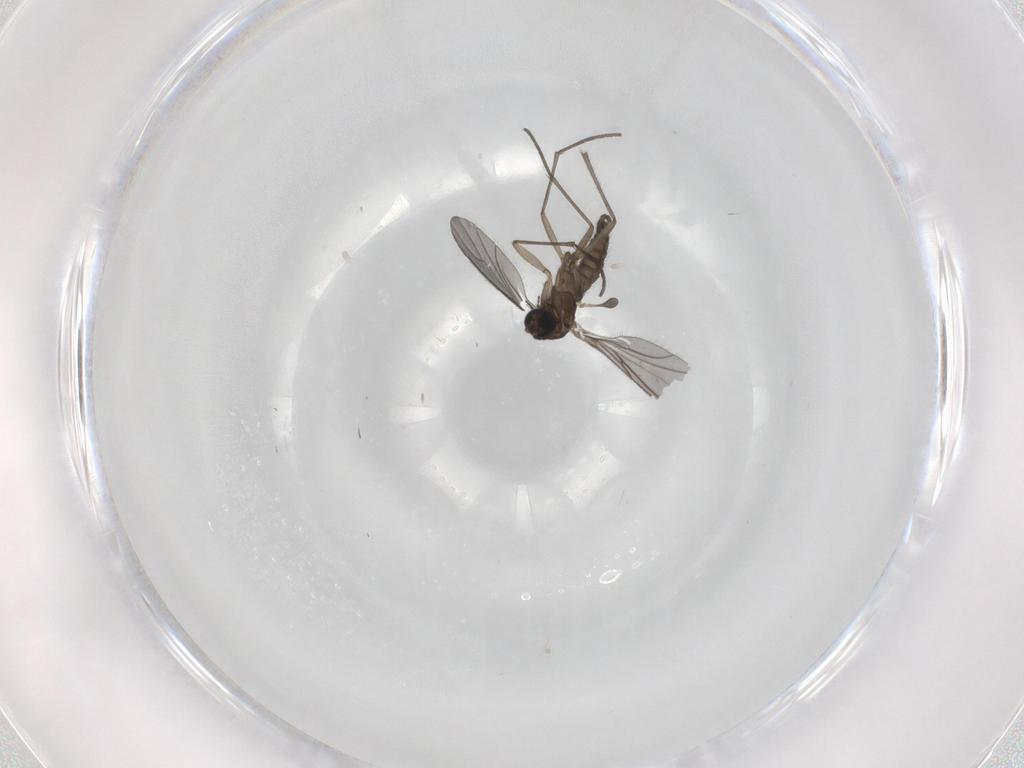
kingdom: Animalia
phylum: Arthropoda
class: Insecta
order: Diptera
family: Sciaridae
